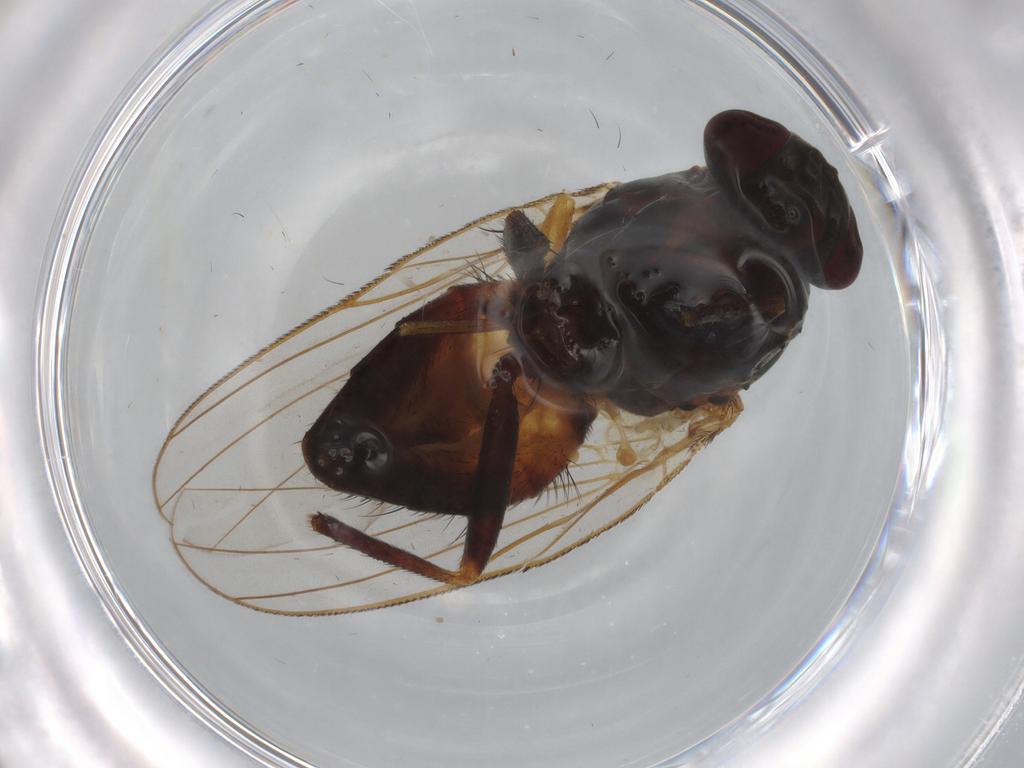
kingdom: Animalia
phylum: Arthropoda
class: Insecta
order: Diptera
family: Limoniidae
